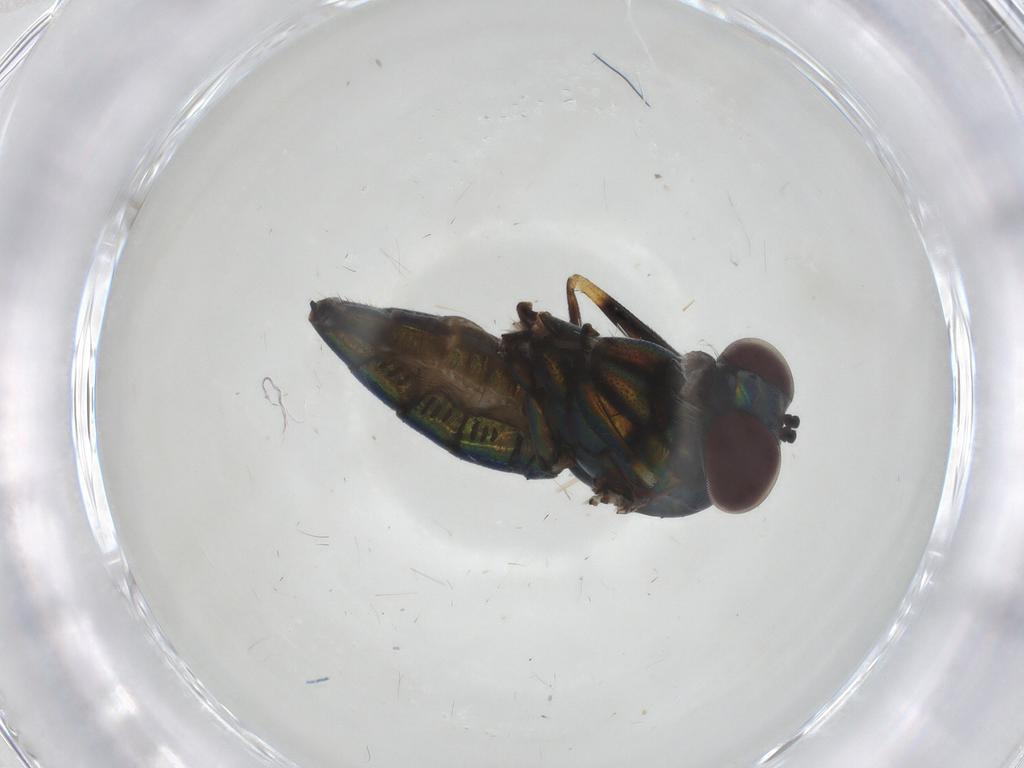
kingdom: Animalia
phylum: Arthropoda
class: Insecta
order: Diptera
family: Dolichopodidae
